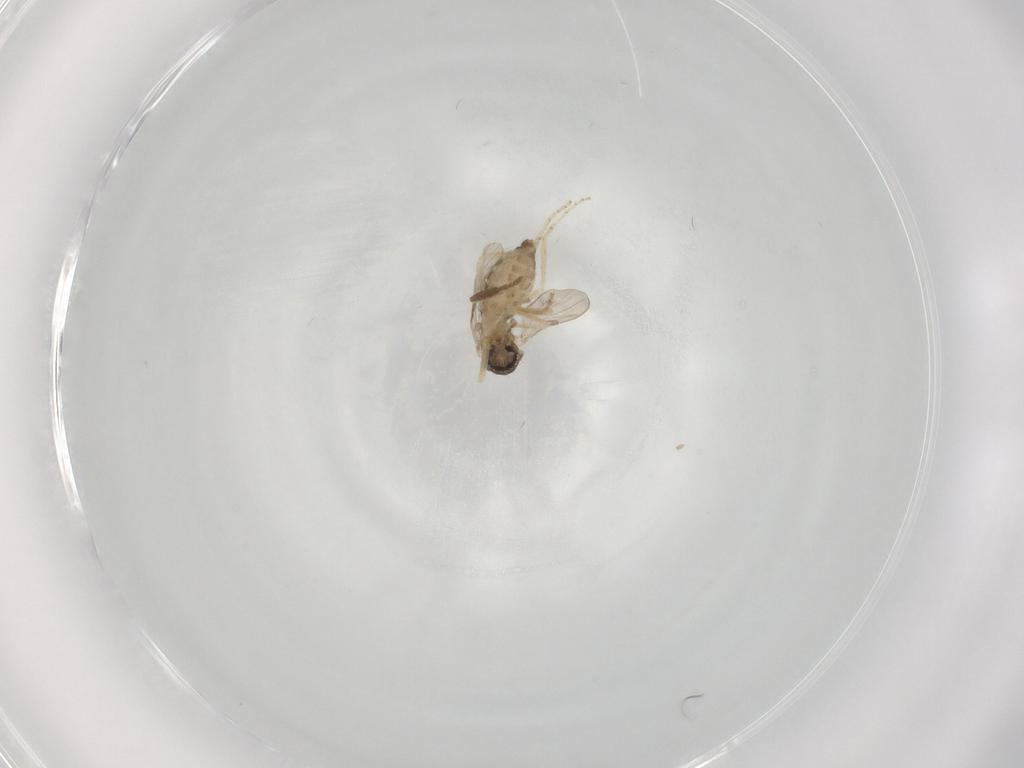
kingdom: Animalia
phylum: Arthropoda
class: Insecta
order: Diptera
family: Ceratopogonidae
